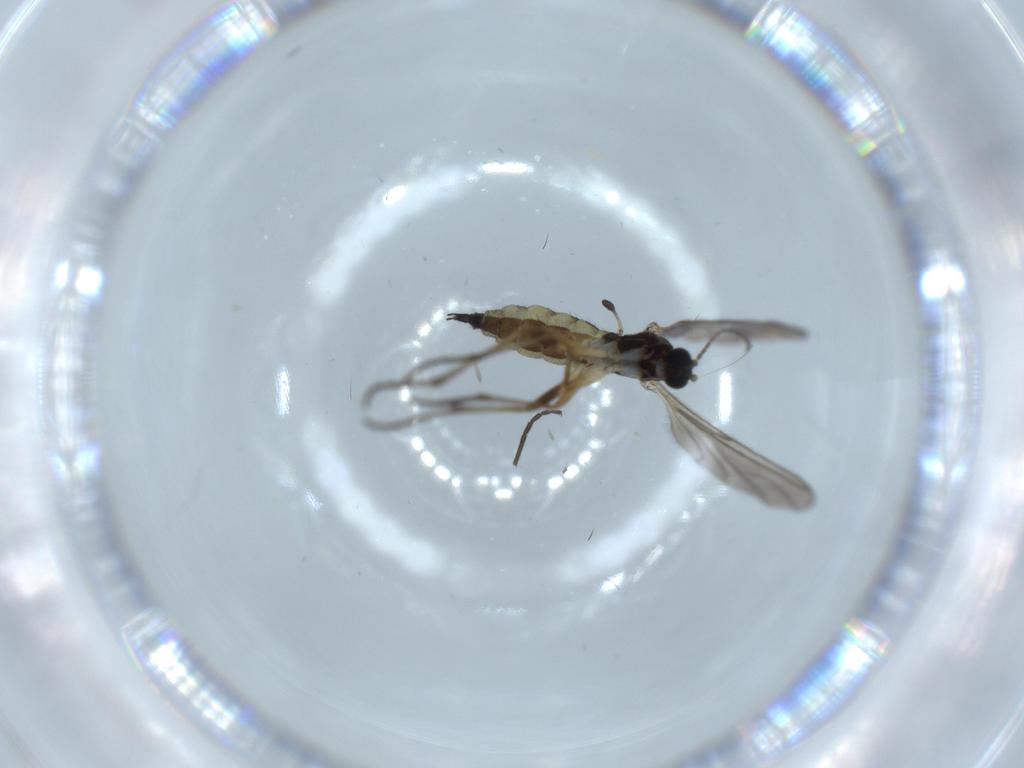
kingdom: Animalia
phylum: Arthropoda
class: Insecta
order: Diptera
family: Sciaridae
